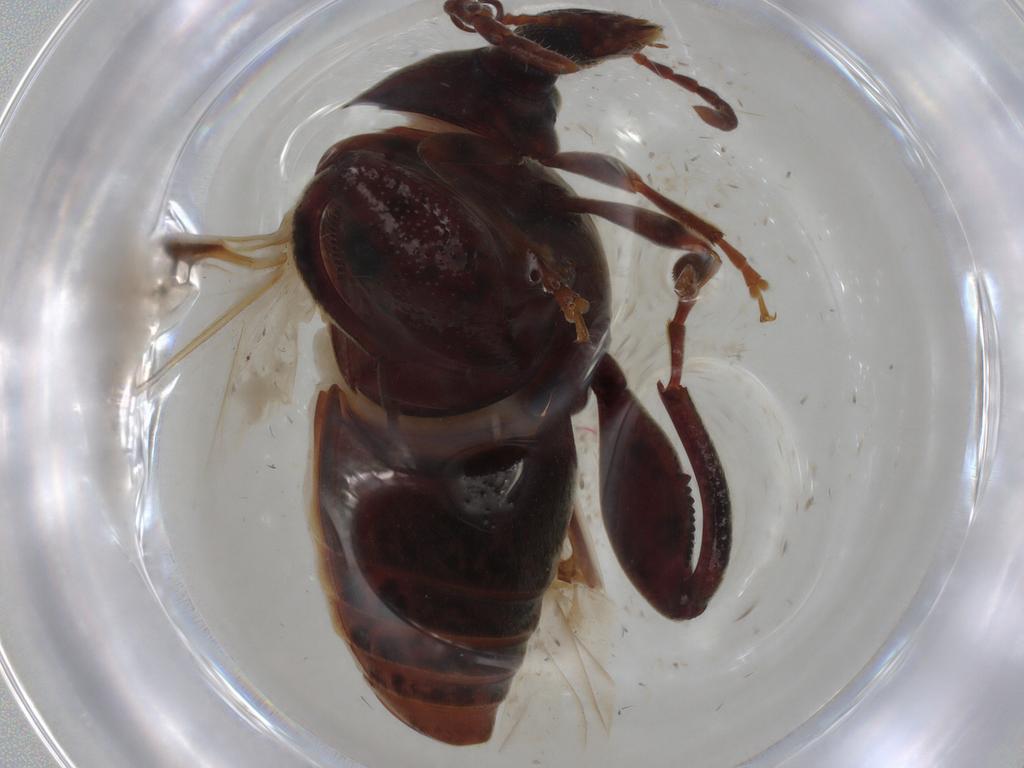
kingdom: Animalia
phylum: Arthropoda
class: Insecta
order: Coleoptera
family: Chrysomelidae
